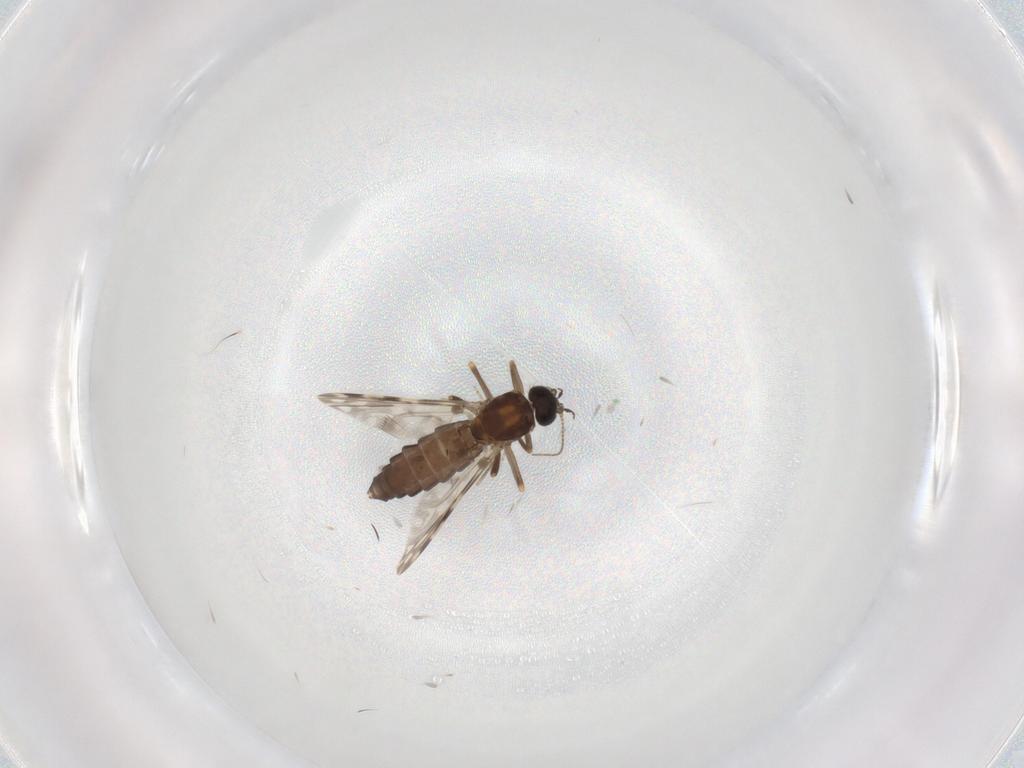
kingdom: Animalia
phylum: Arthropoda
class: Insecta
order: Diptera
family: Ceratopogonidae
